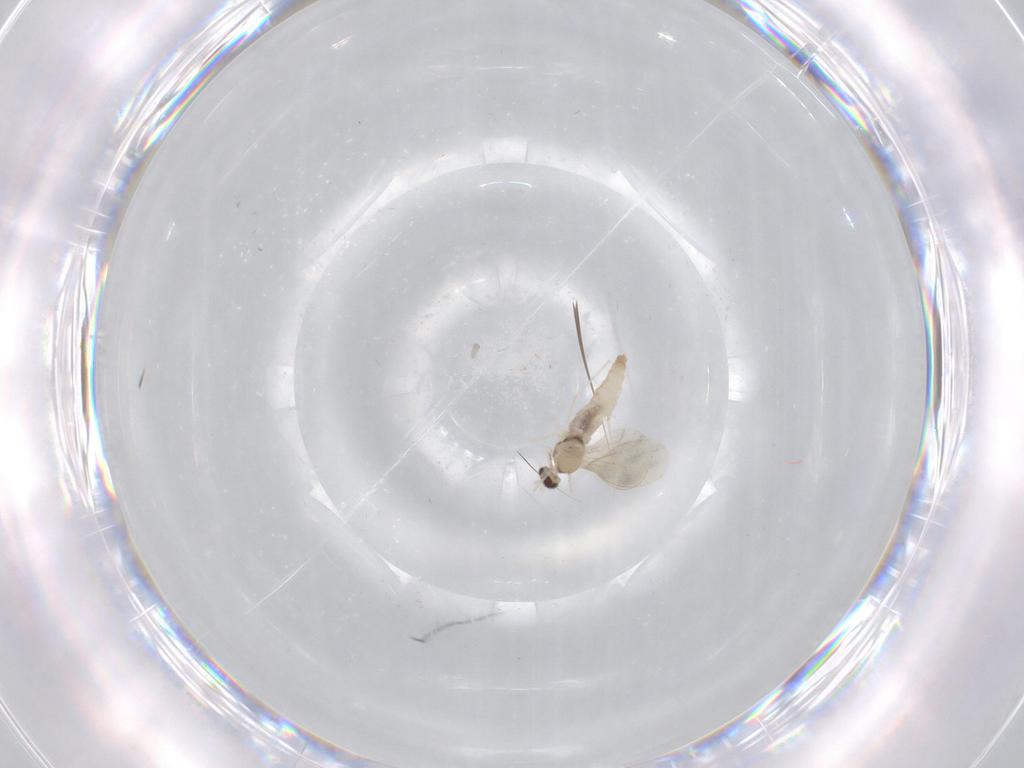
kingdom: Animalia
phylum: Arthropoda
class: Insecta
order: Diptera
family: Cecidomyiidae
